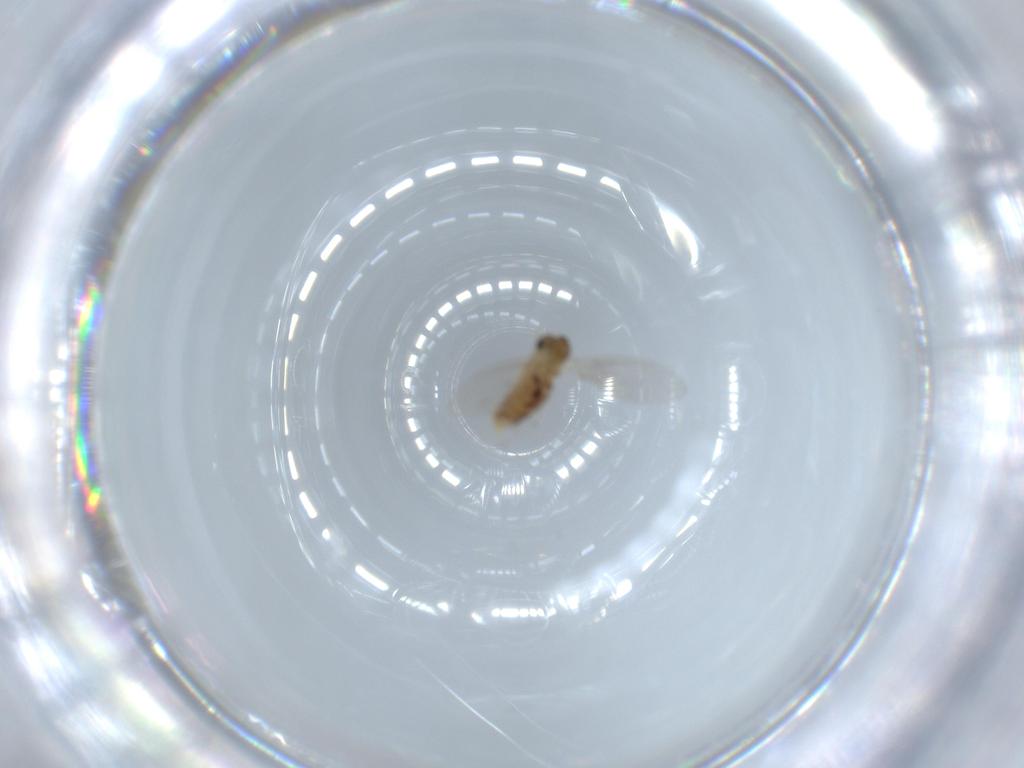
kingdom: Animalia
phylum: Arthropoda
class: Insecta
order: Diptera
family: Psychodidae
